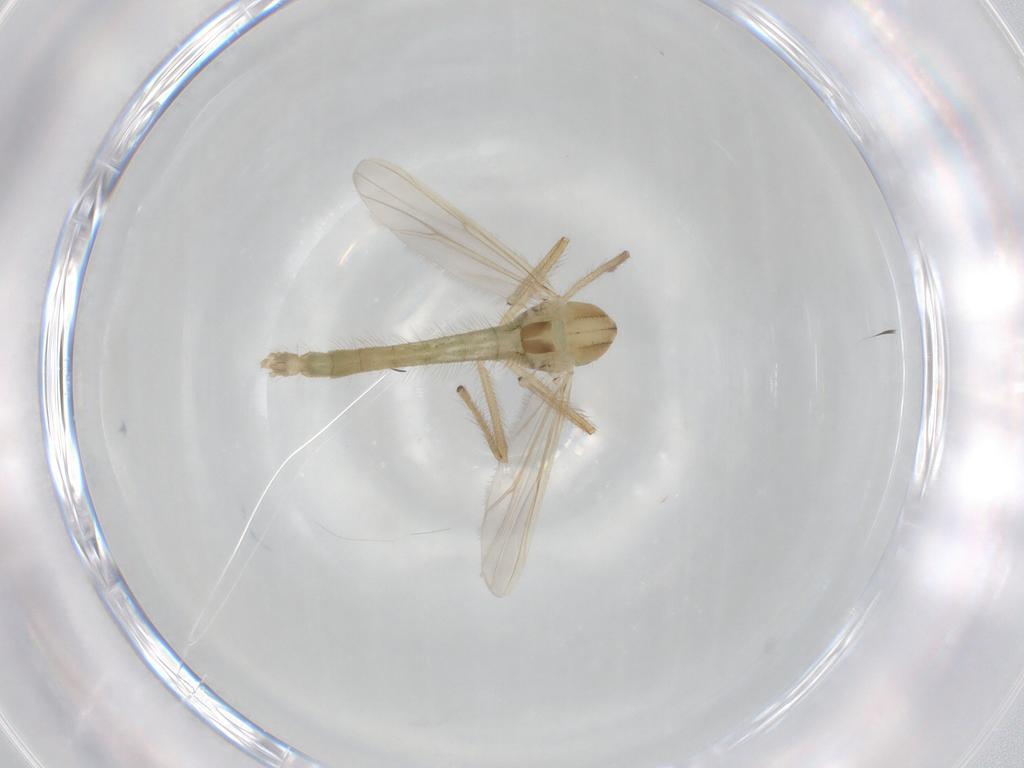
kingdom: Animalia
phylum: Arthropoda
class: Insecta
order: Diptera
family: Chironomidae
